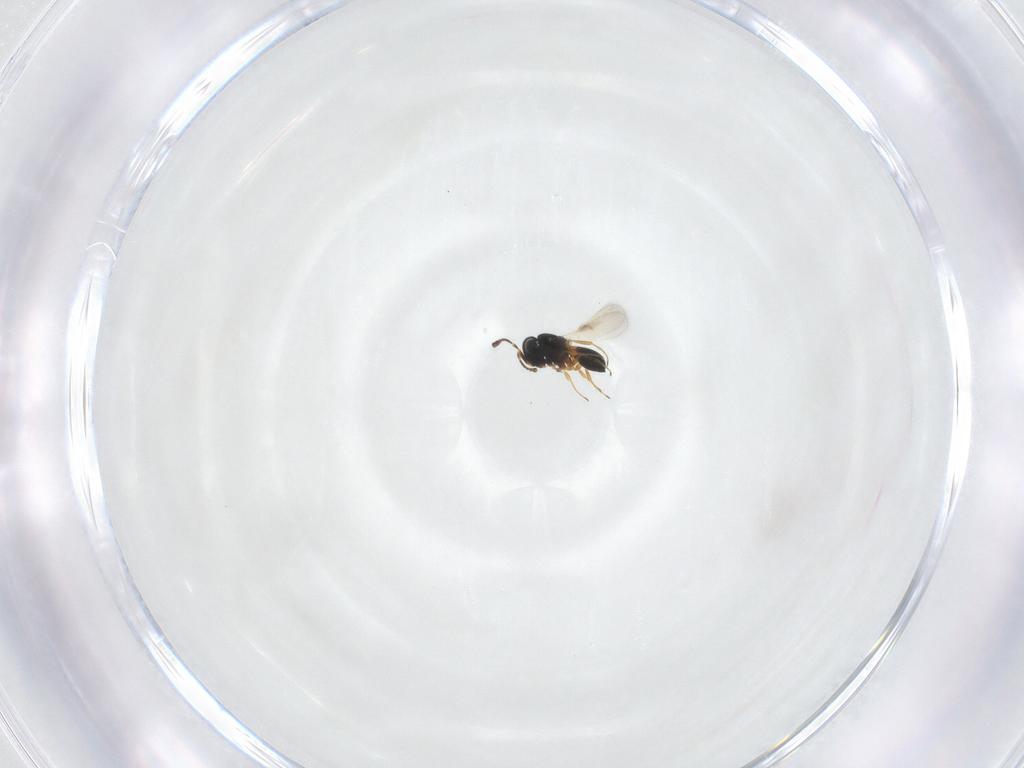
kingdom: Animalia
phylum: Arthropoda
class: Insecta
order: Hymenoptera
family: Scelionidae
